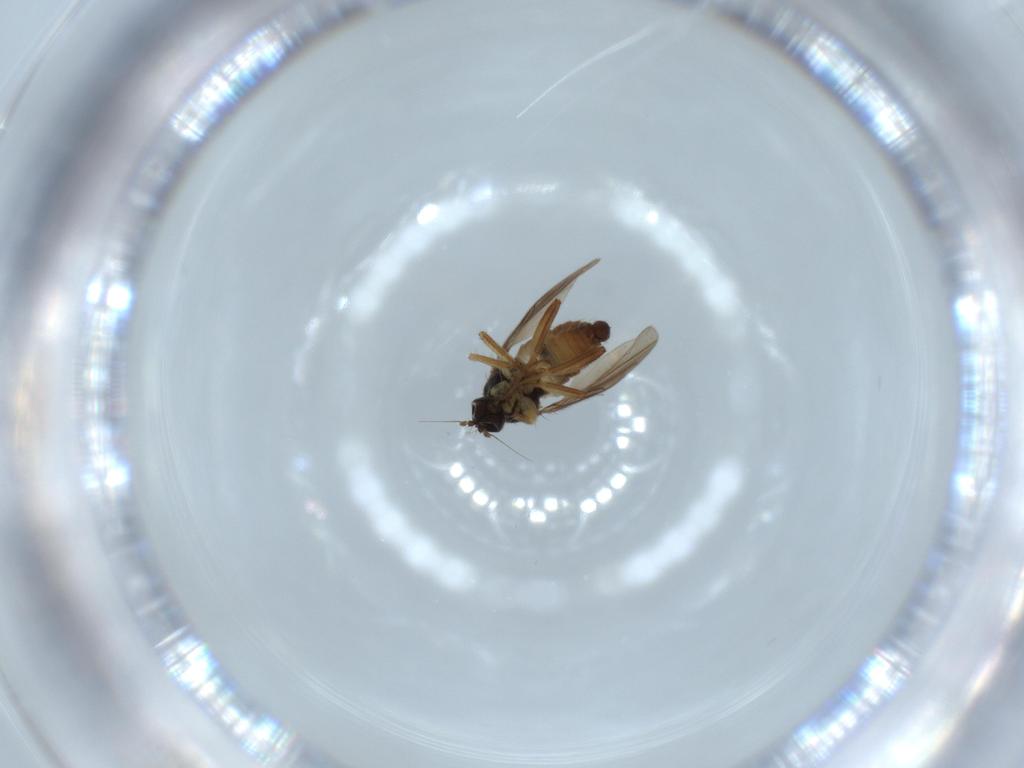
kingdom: Animalia
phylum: Arthropoda
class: Insecta
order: Diptera
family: Hybotidae
